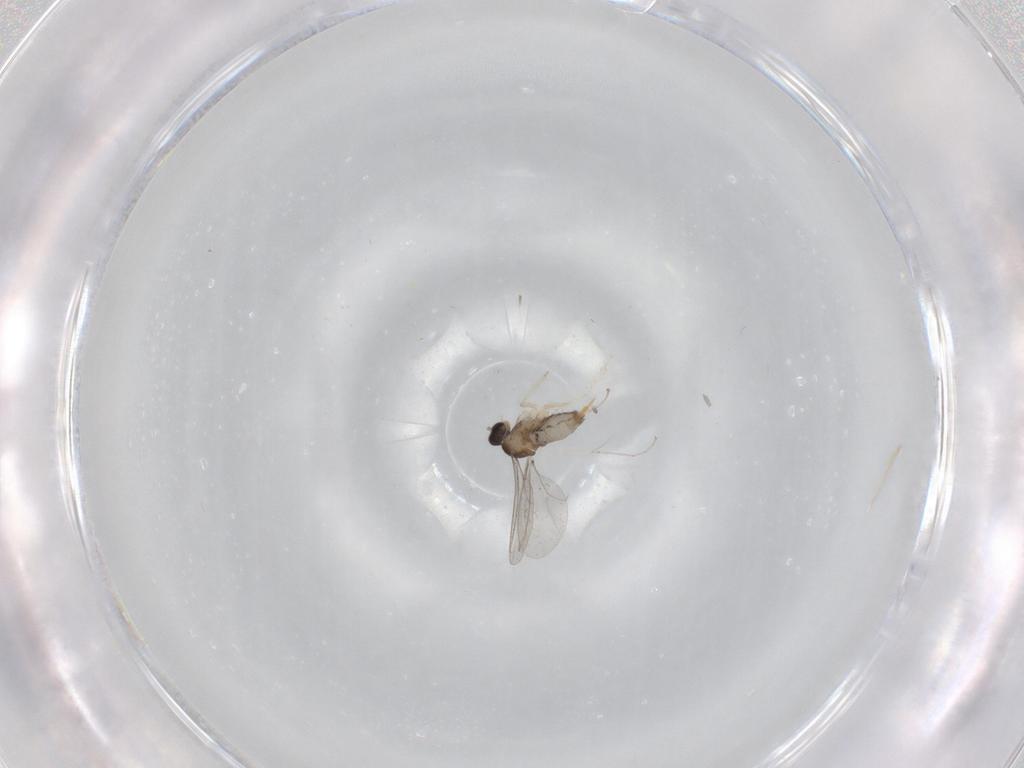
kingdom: Animalia
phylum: Arthropoda
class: Insecta
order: Diptera
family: Cecidomyiidae
